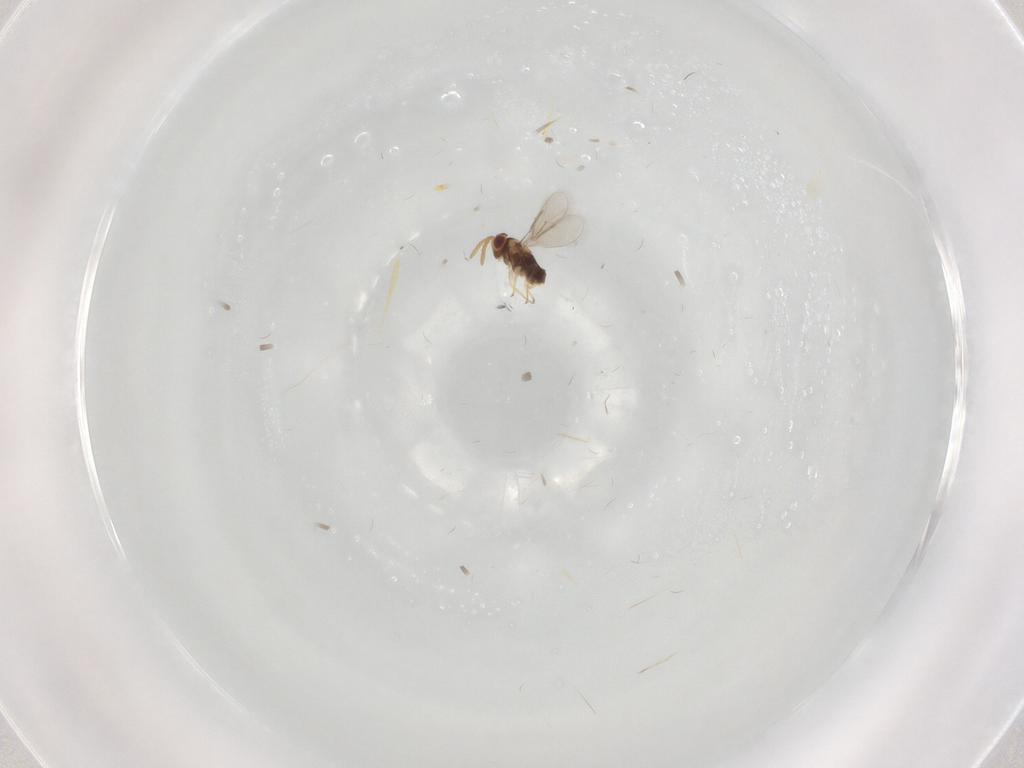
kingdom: Animalia
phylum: Arthropoda
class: Insecta
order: Hymenoptera
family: Diapriidae
